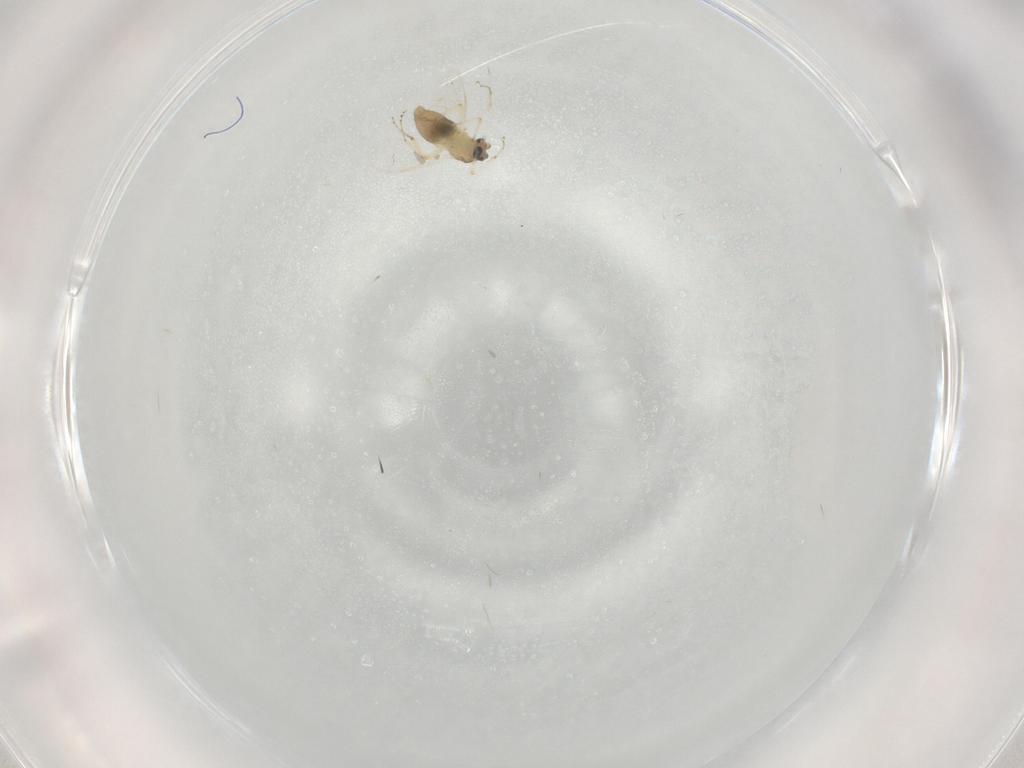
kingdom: Animalia
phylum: Arthropoda
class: Insecta
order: Diptera
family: Ceratopogonidae
